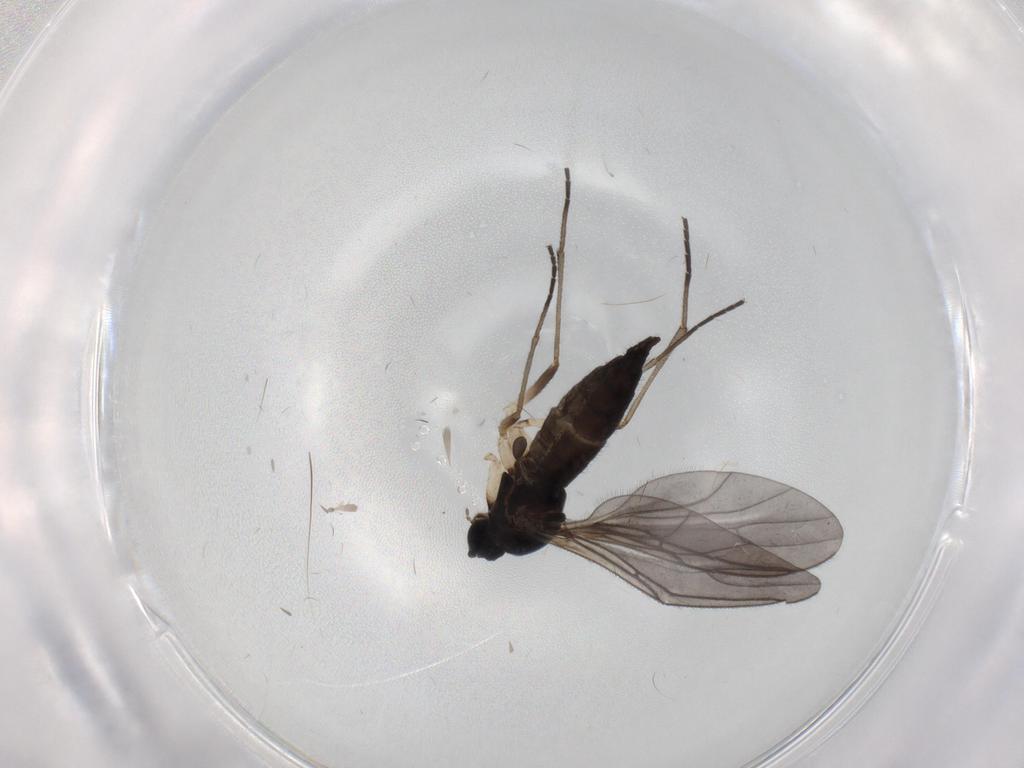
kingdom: Animalia
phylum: Arthropoda
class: Insecta
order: Diptera
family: Sciaridae
